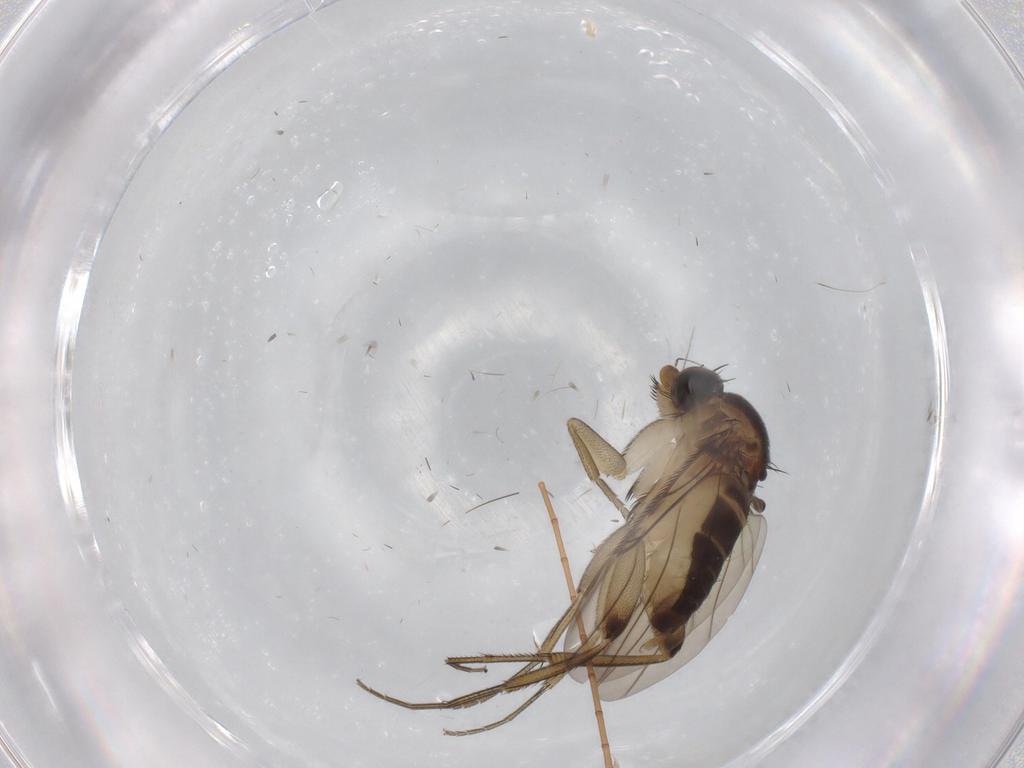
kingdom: Animalia
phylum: Arthropoda
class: Insecta
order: Diptera
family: Phoridae
